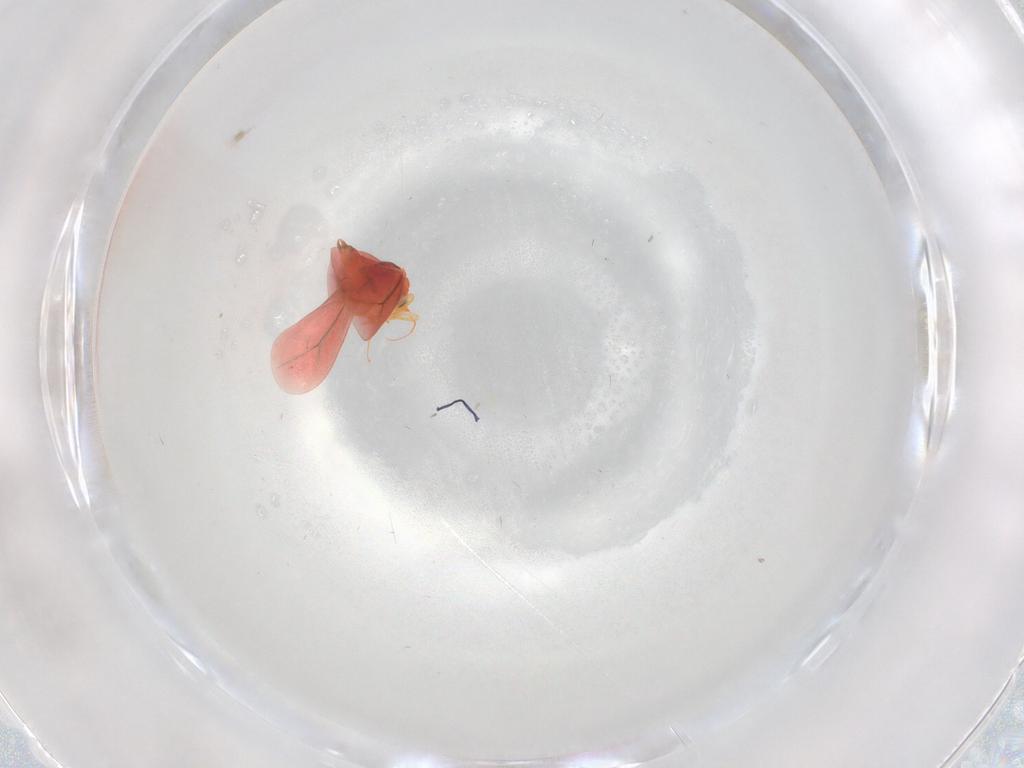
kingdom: Animalia
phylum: Arthropoda
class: Insecta
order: Hemiptera
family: Aleyrodidae
